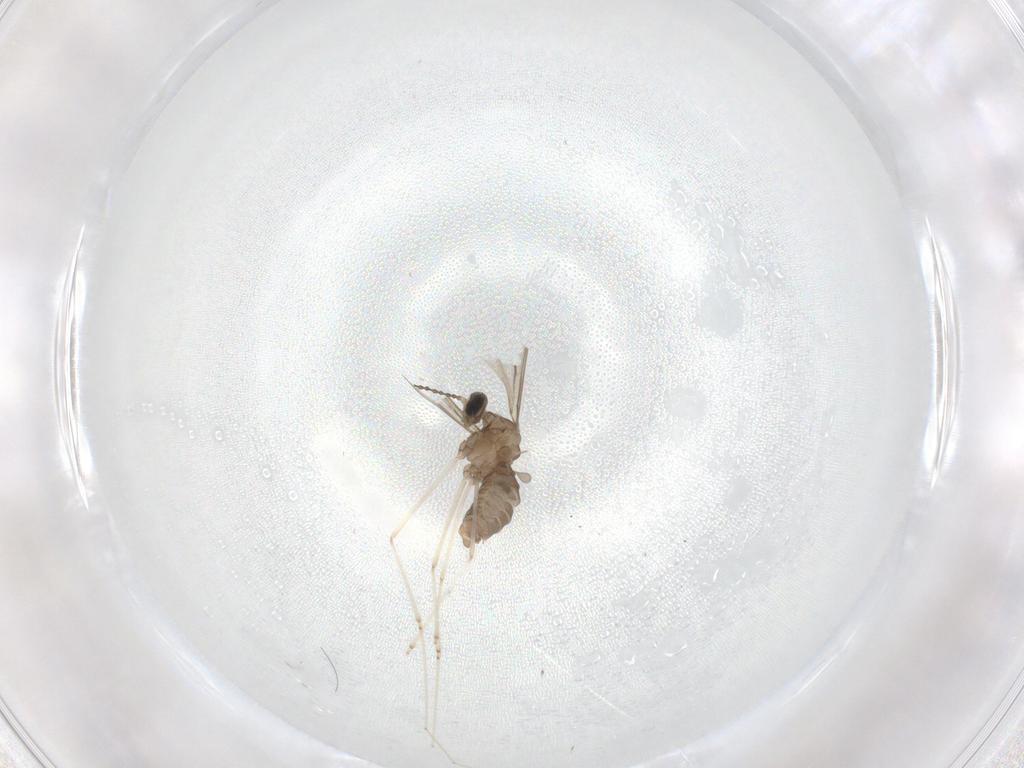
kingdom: Animalia
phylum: Arthropoda
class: Insecta
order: Diptera
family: Cecidomyiidae
